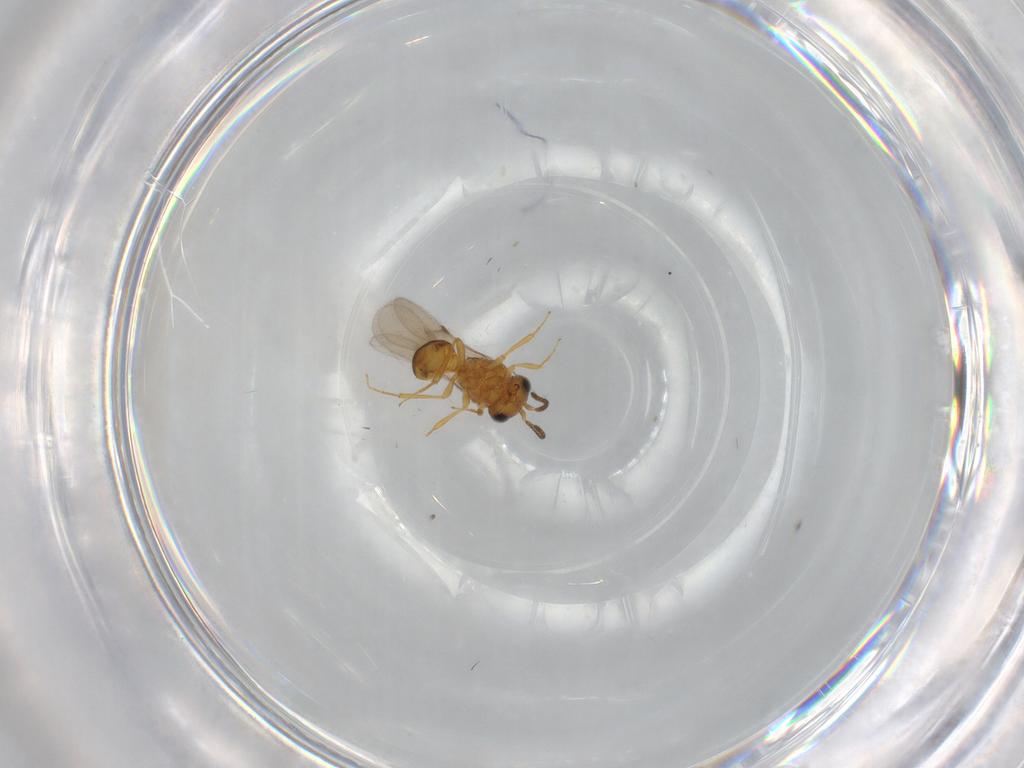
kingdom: Animalia
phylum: Arthropoda
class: Insecta
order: Hymenoptera
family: Scelionidae
